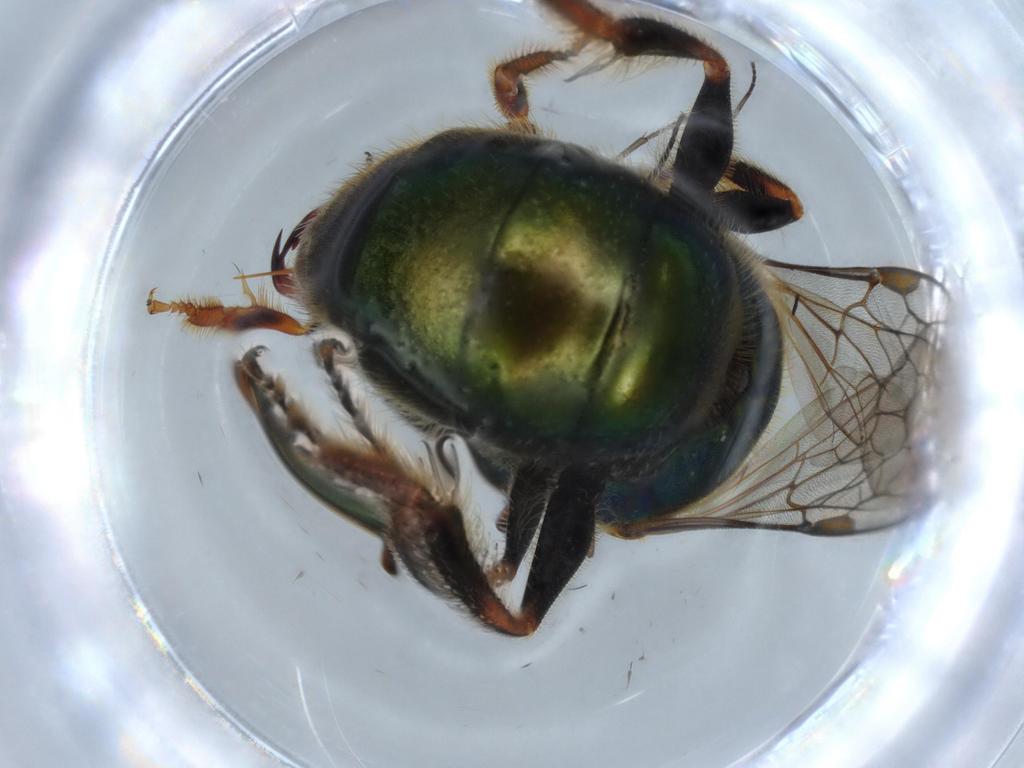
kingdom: Animalia
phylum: Arthropoda
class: Insecta
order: Hymenoptera
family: Halictidae
